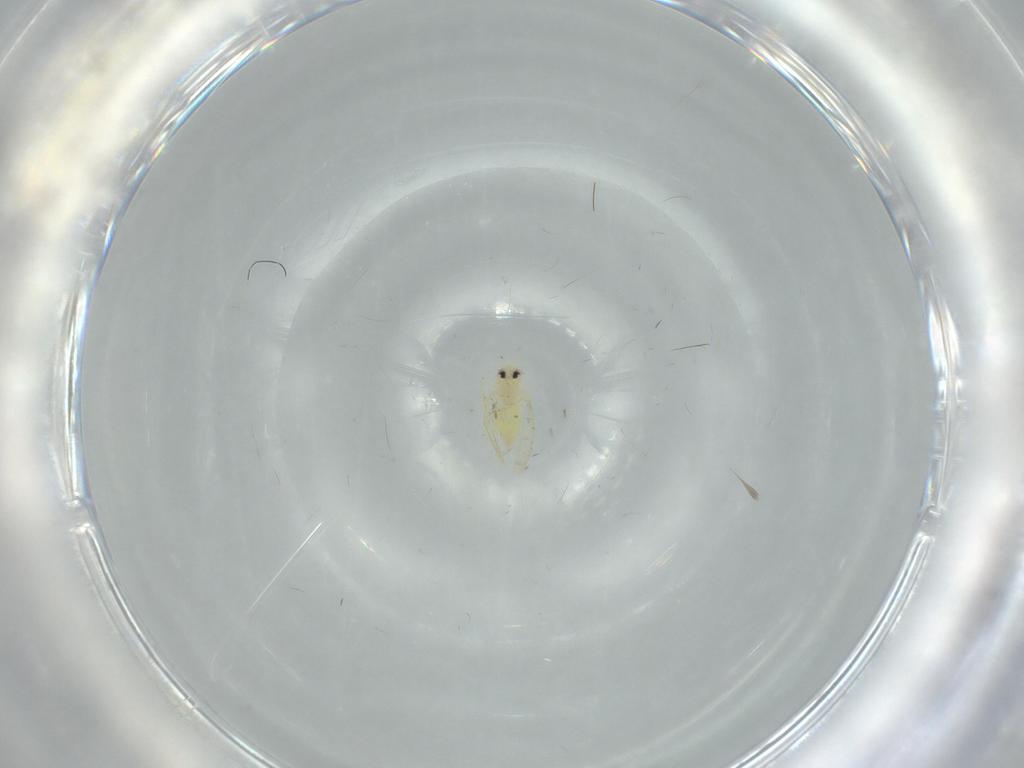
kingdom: Animalia
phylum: Arthropoda
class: Insecta
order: Hemiptera
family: Aleyrodidae
